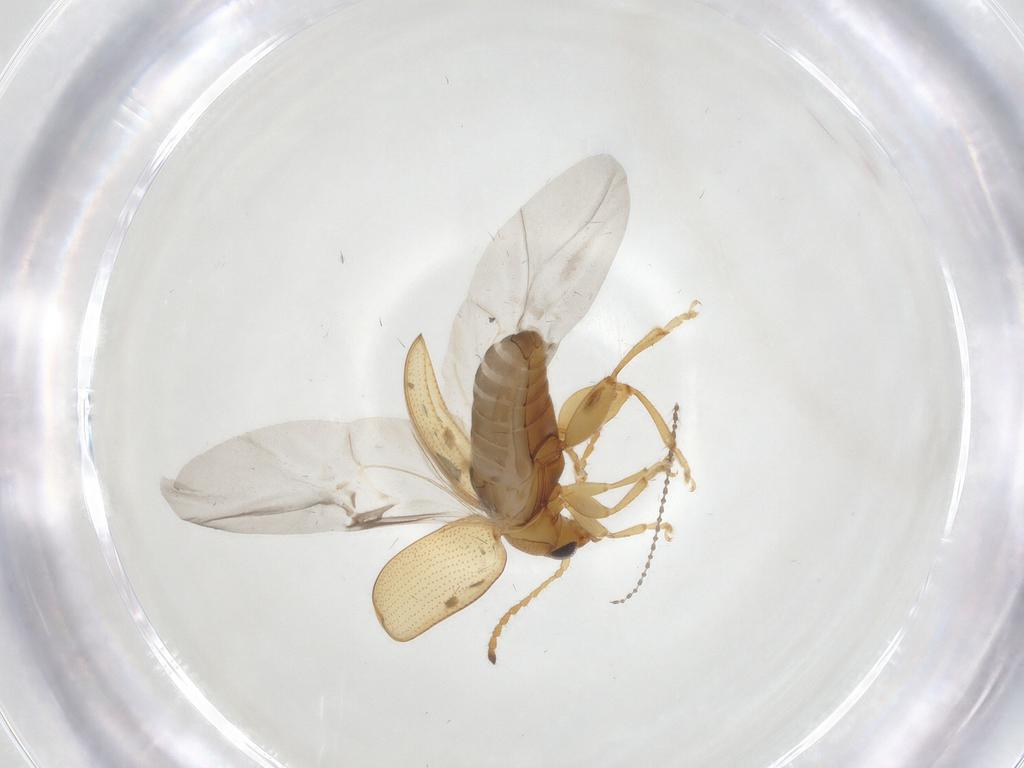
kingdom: Animalia
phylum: Arthropoda
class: Insecta
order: Coleoptera
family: Chrysomelidae
